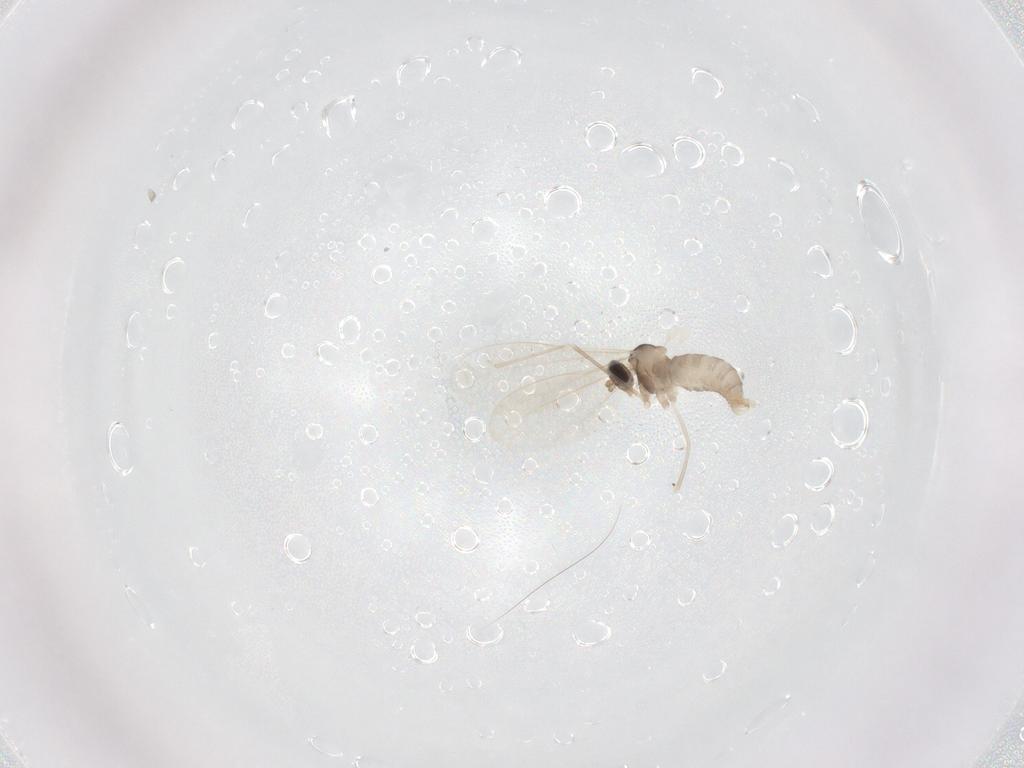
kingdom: Animalia
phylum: Arthropoda
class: Insecta
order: Diptera
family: Cecidomyiidae
